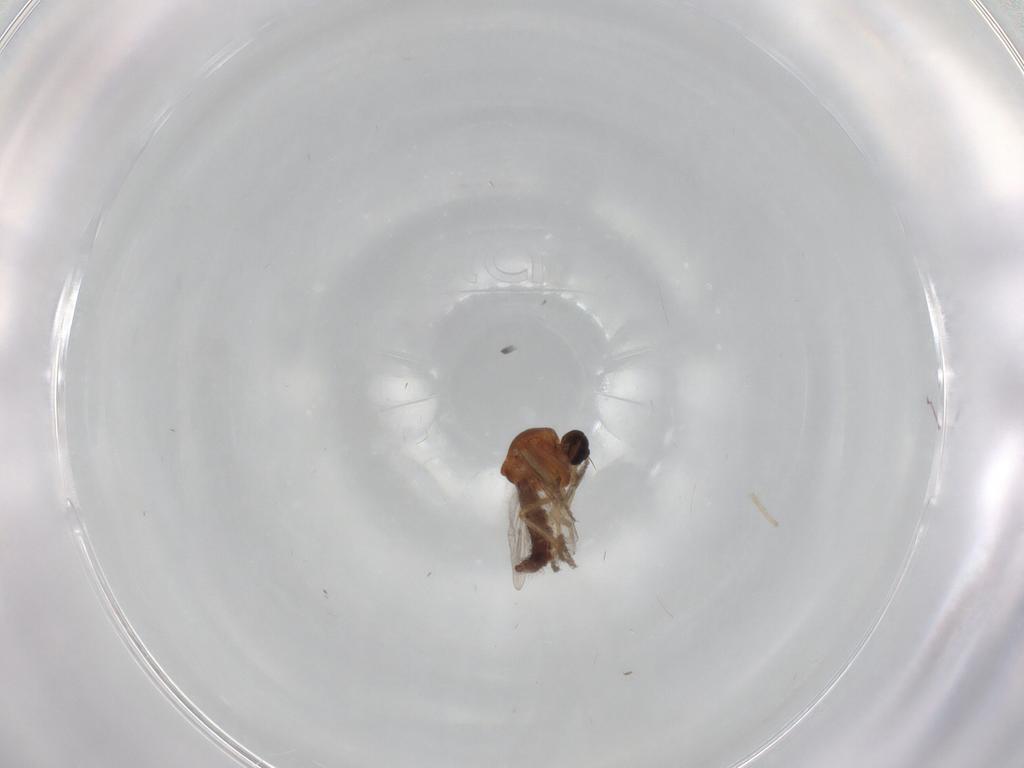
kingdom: Animalia
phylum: Arthropoda
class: Insecta
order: Diptera
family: Ceratopogonidae
